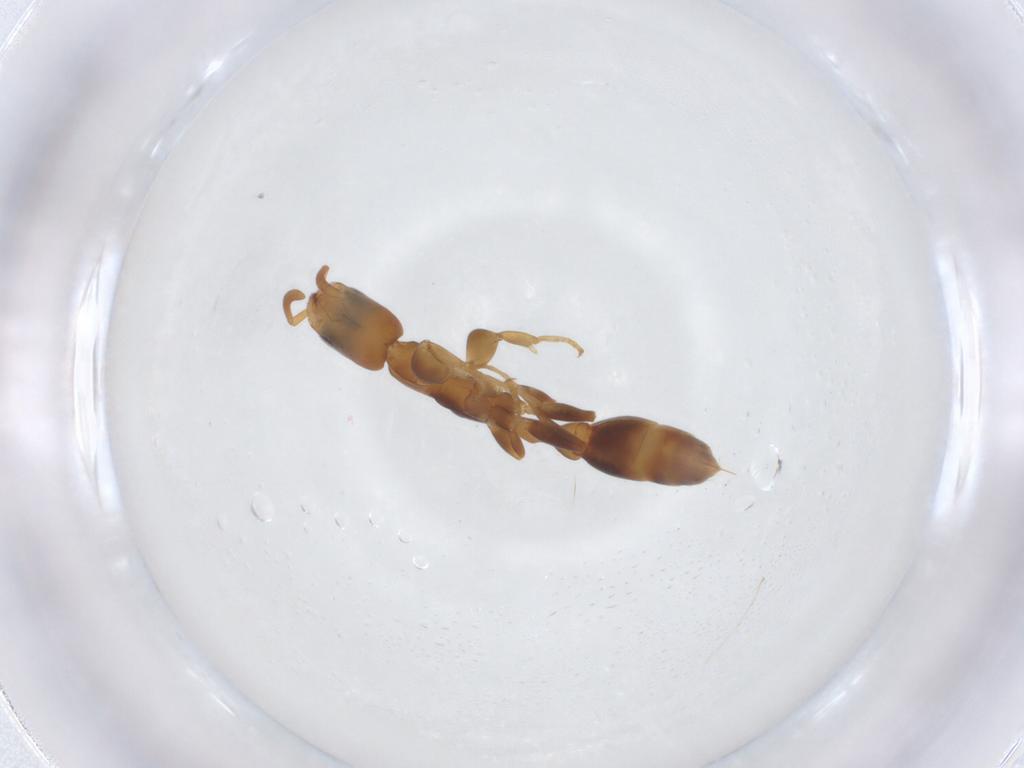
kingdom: Animalia
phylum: Arthropoda
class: Insecta
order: Hymenoptera
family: Formicidae
